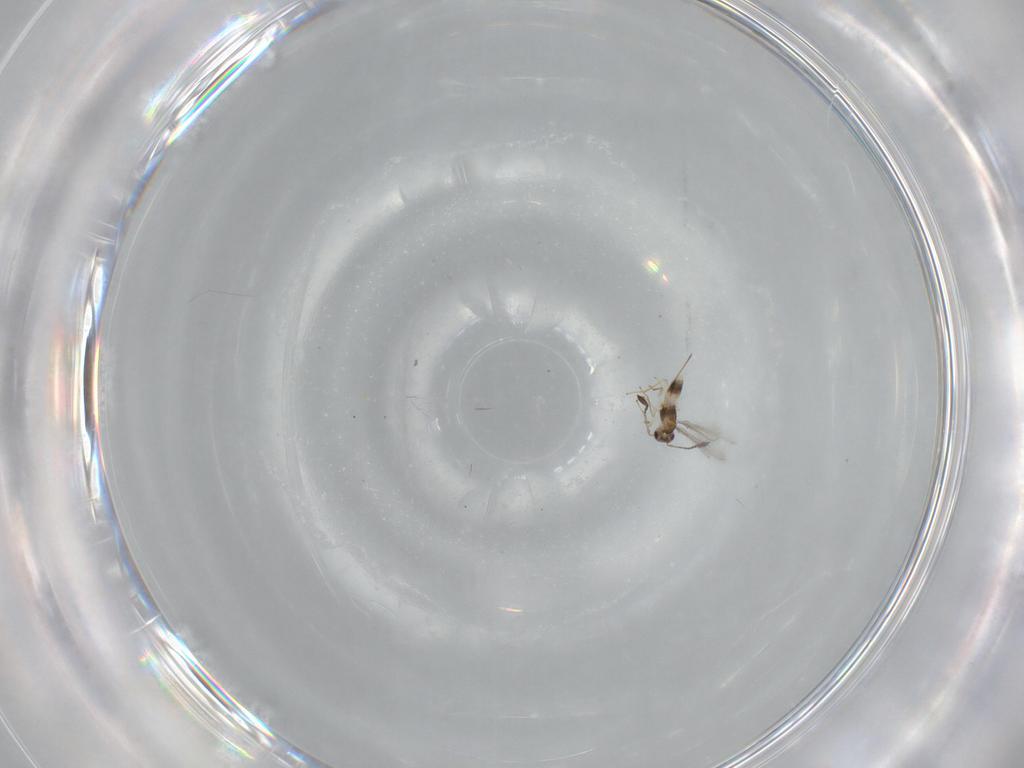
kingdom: Animalia
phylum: Arthropoda
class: Insecta
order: Hymenoptera
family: Mymaridae
